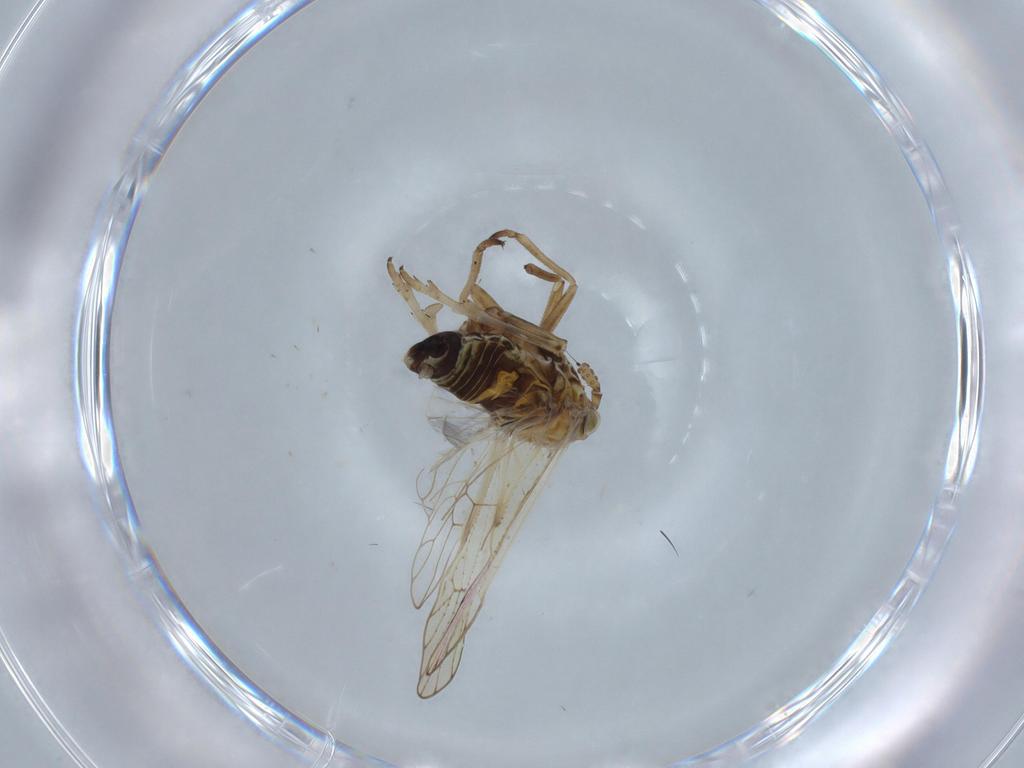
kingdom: Animalia
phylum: Arthropoda
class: Insecta
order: Hemiptera
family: Delphacidae
